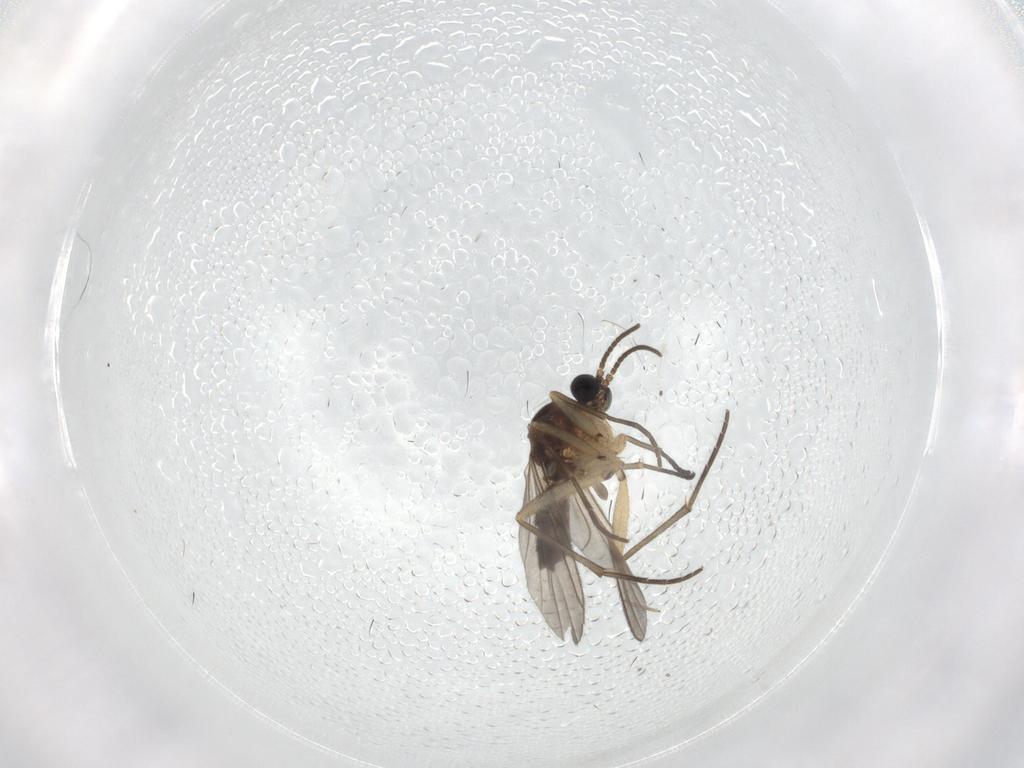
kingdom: Animalia
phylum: Arthropoda
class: Insecta
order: Diptera
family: Sciaridae
